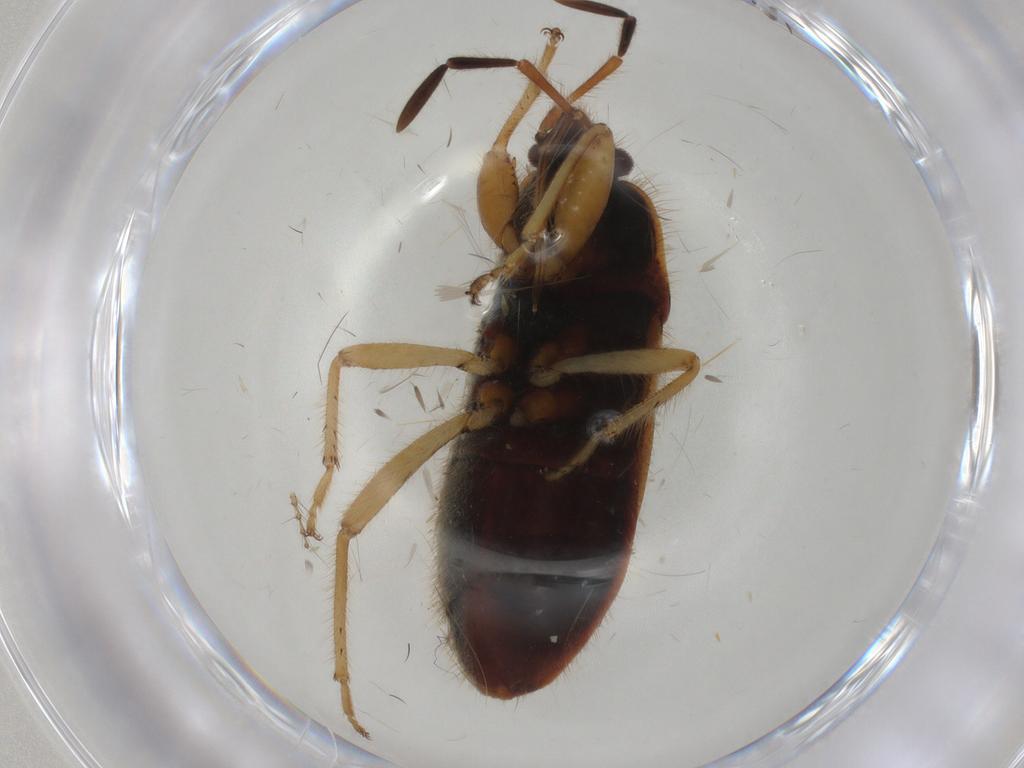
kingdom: Animalia
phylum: Arthropoda
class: Insecta
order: Hemiptera
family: Rhyparochromidae
